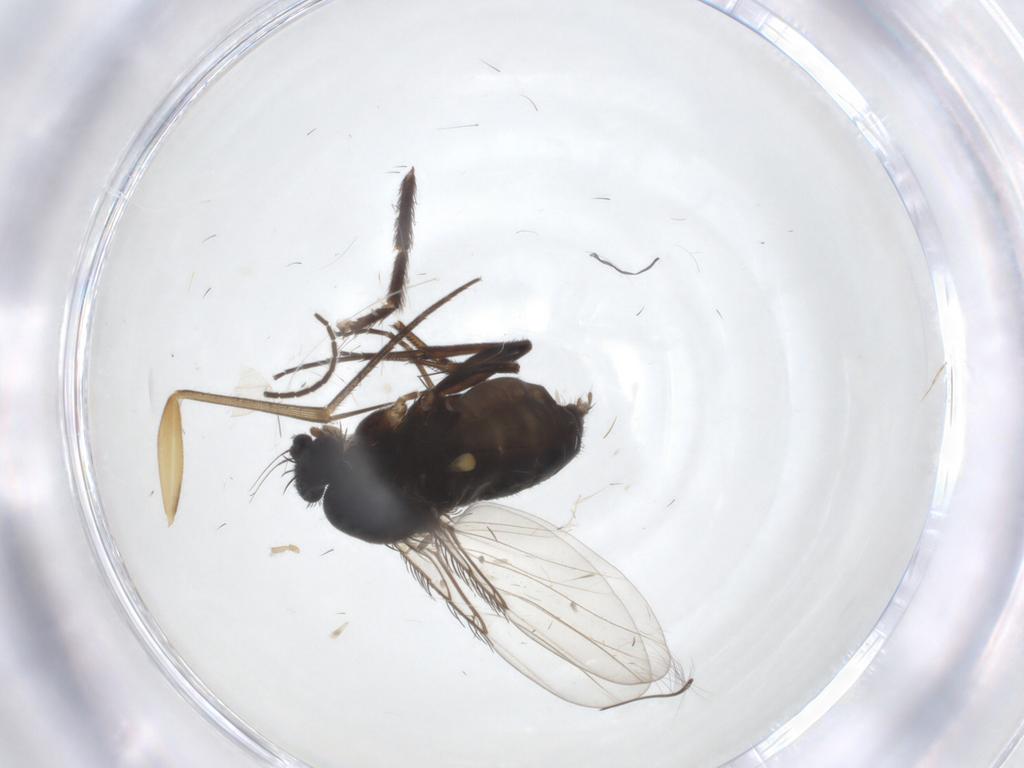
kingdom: Animalia
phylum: Arthropoda
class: Insecta
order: Diptera
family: Phoridae
